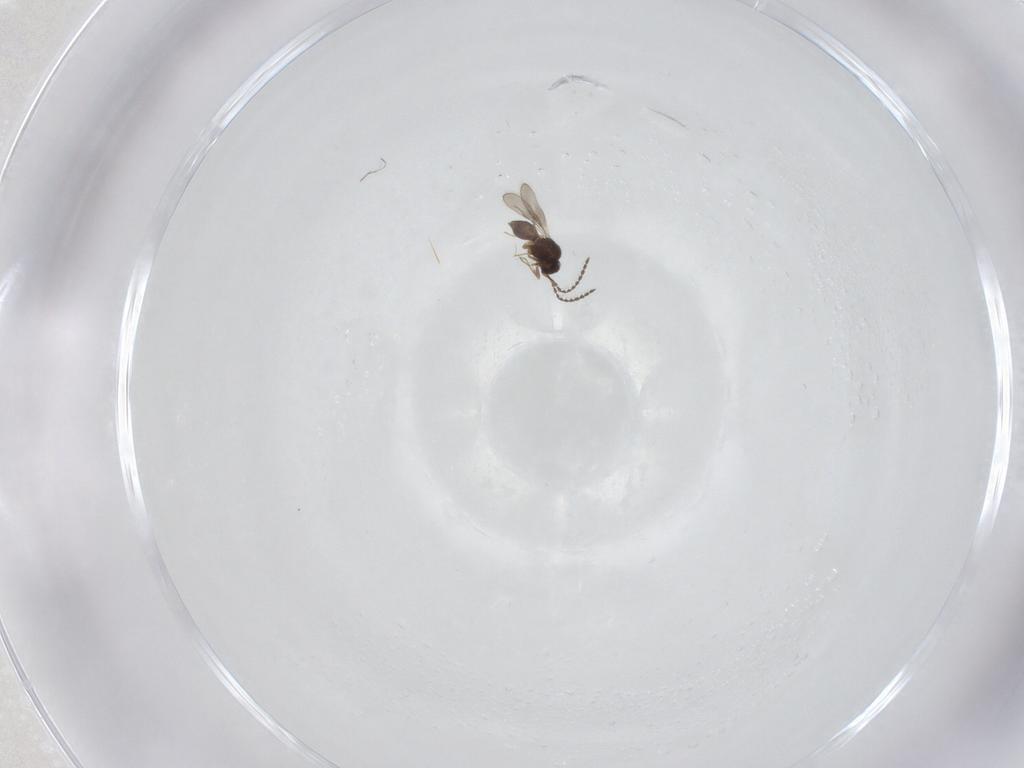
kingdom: Animalia
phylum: Arthropoda
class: Insecta
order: Hymenoptera
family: Ceraphronidae
